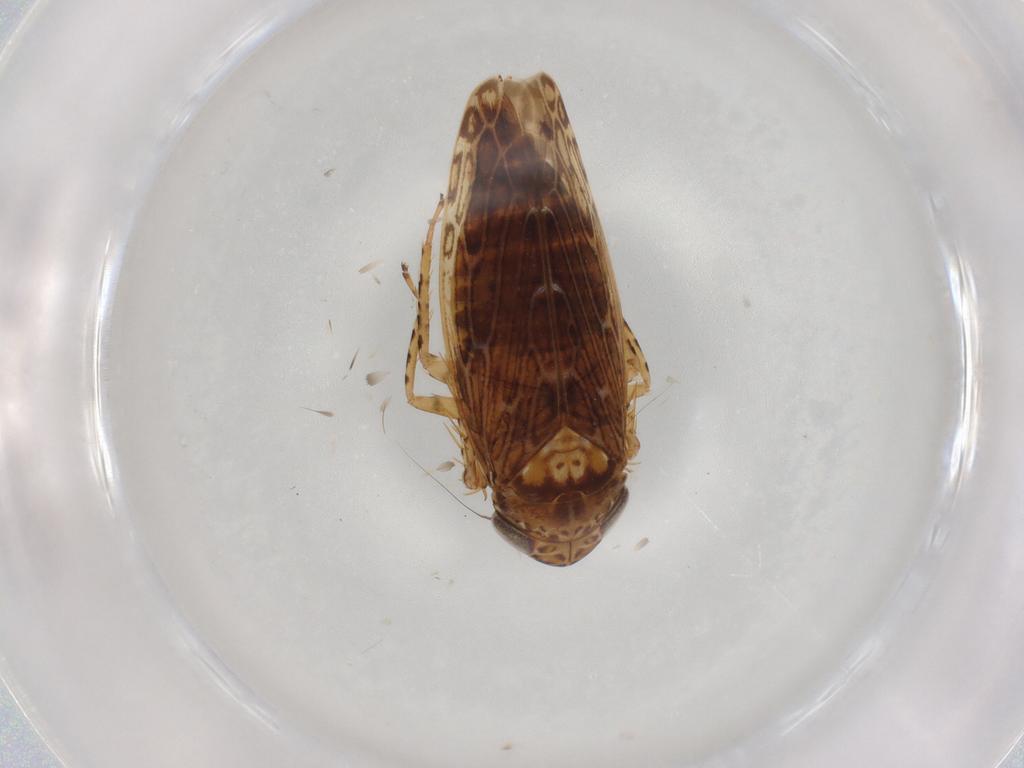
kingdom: Animalia
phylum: Arthropoda
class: Insecta
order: Hemiptera
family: Cicadellidae
